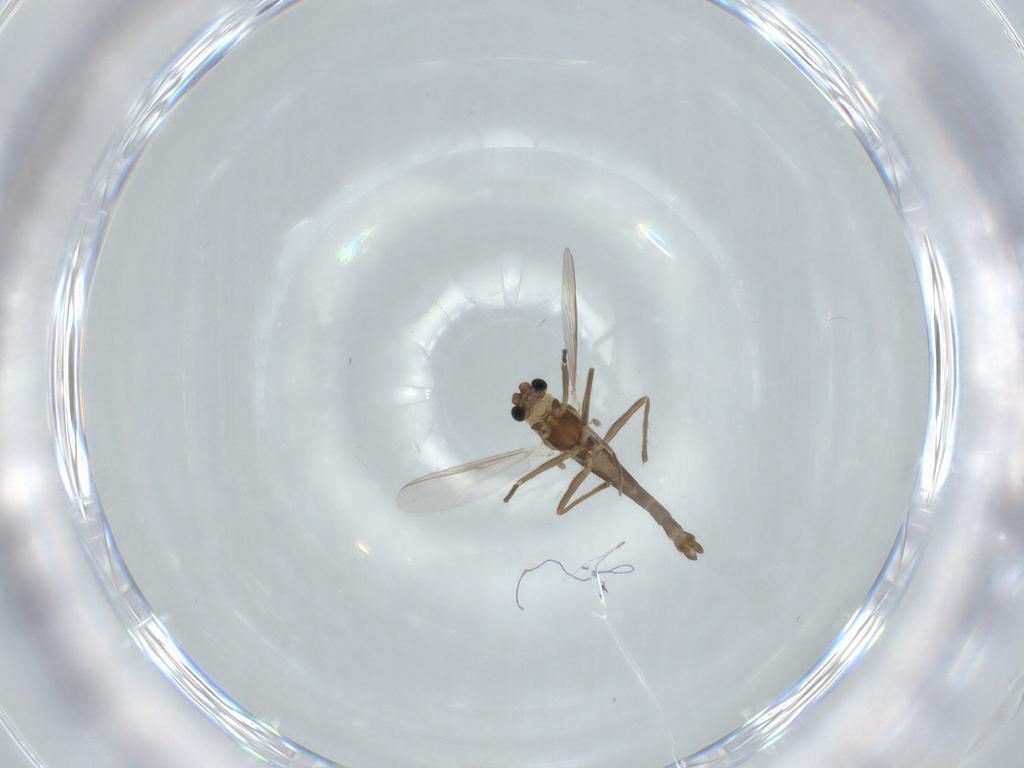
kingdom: Animalia
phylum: Arthropoda
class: Insecta
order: Diptera
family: Chironomidae
